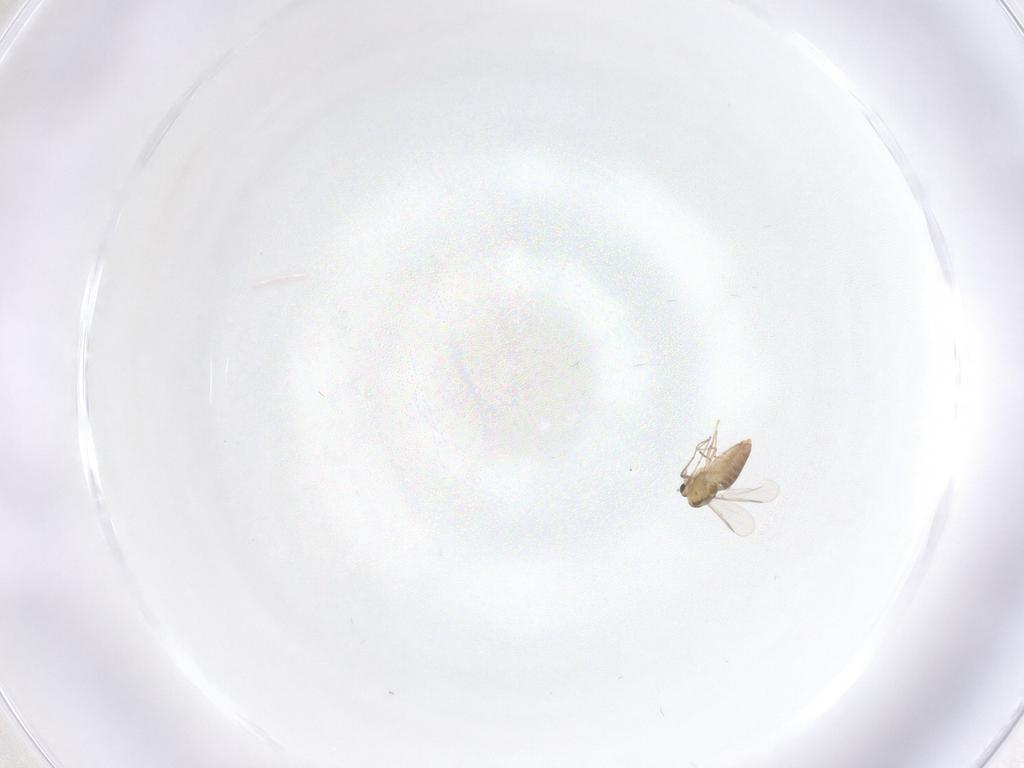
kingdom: Animalia
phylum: Arthropoda
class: Insecta
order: Diptera
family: Chironomidae
